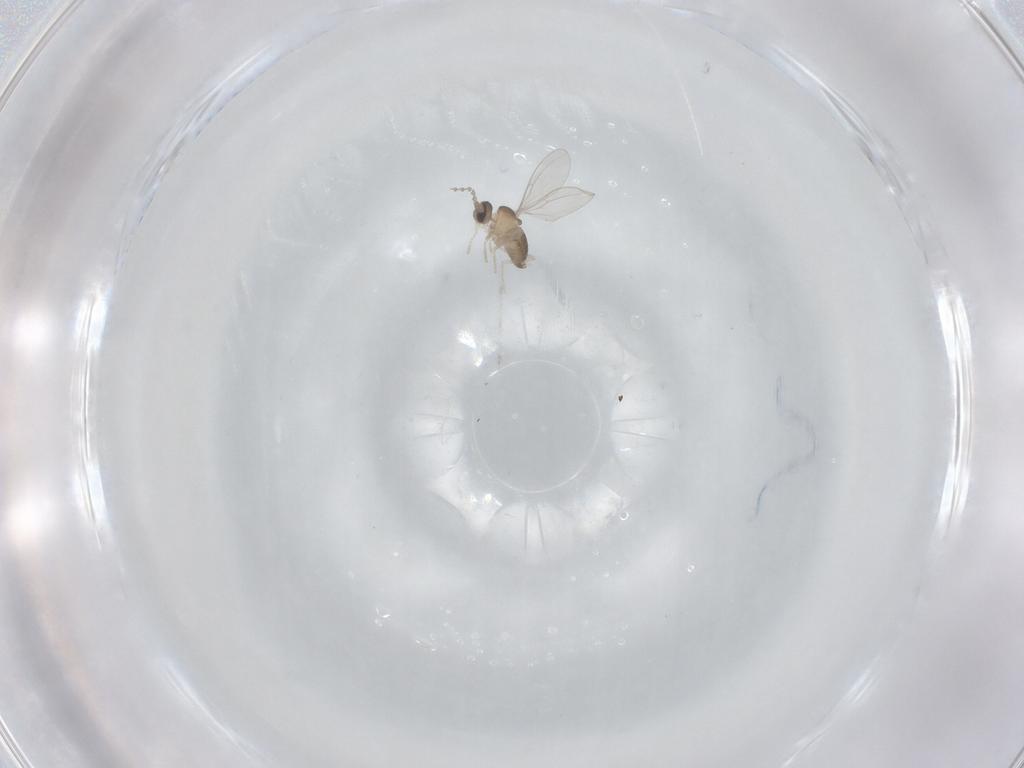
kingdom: Animalia
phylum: Arthropoda
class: Insecta
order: Diptera
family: Cecidomyiidae
